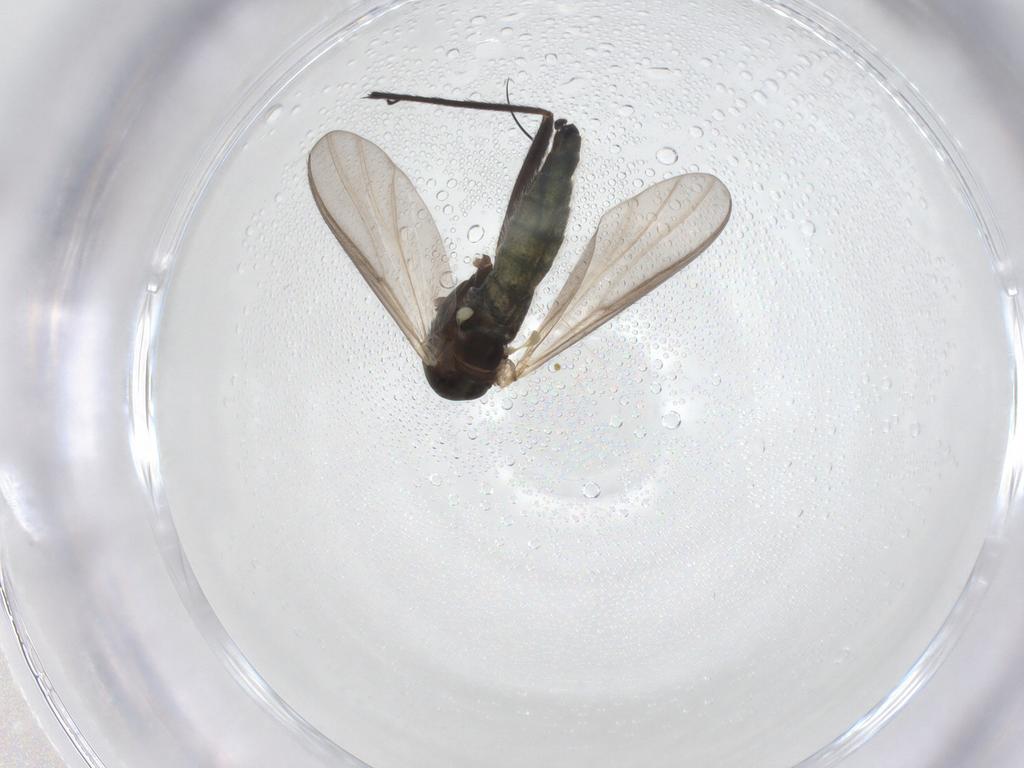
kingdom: Animalia
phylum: Arthropoda
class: Insecta
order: Diptera
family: Chironomidae
